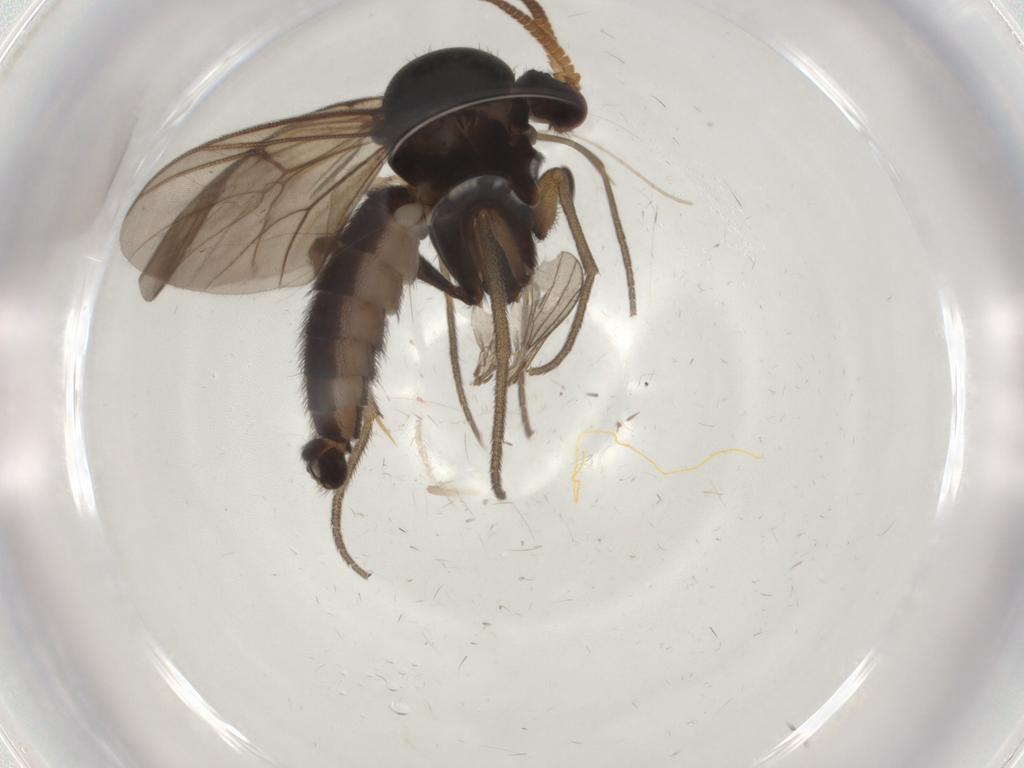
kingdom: Animalia
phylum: Arthropoda
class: Insecta
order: Diptera
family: Mycetophilidae
